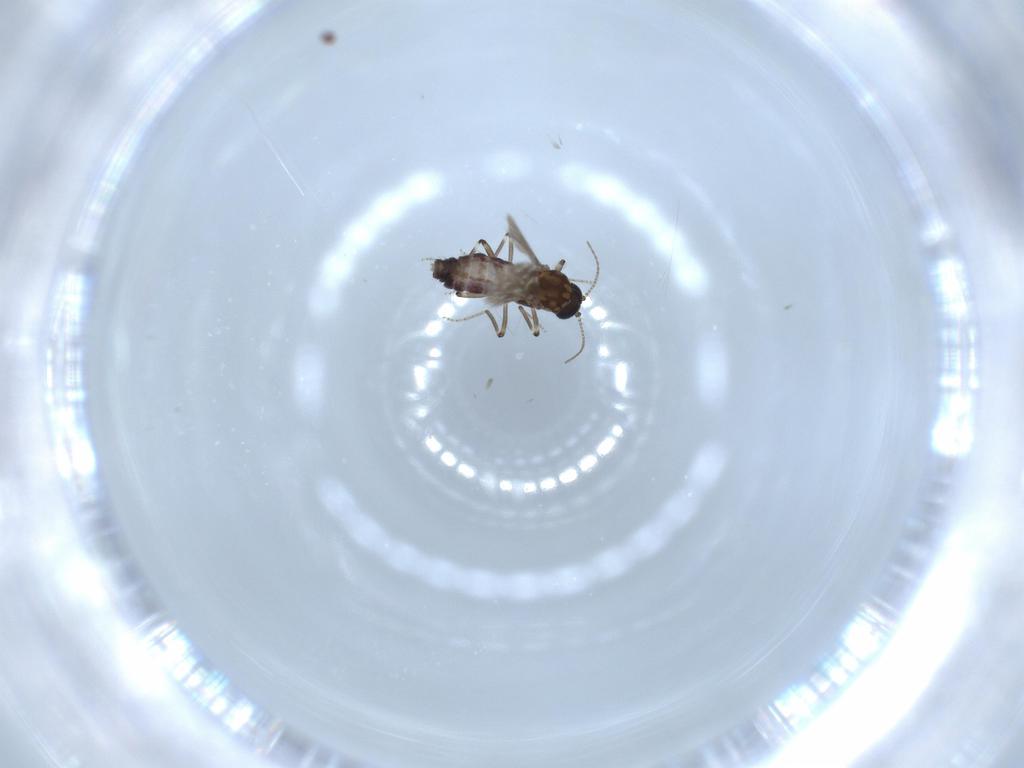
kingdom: Animalia
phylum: Arthropoda
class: Insecta
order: Diptera
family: Ceratopogonidae
